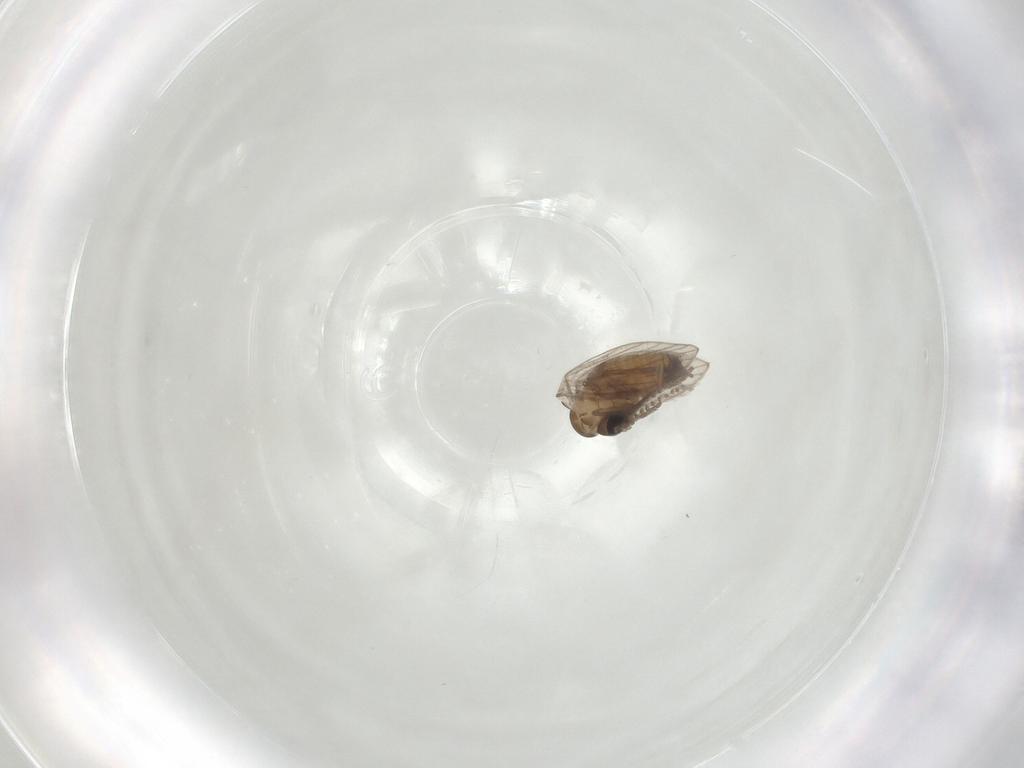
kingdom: Animalia
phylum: Arthropoda
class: Insecta
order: Diptera
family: Psychodidae
